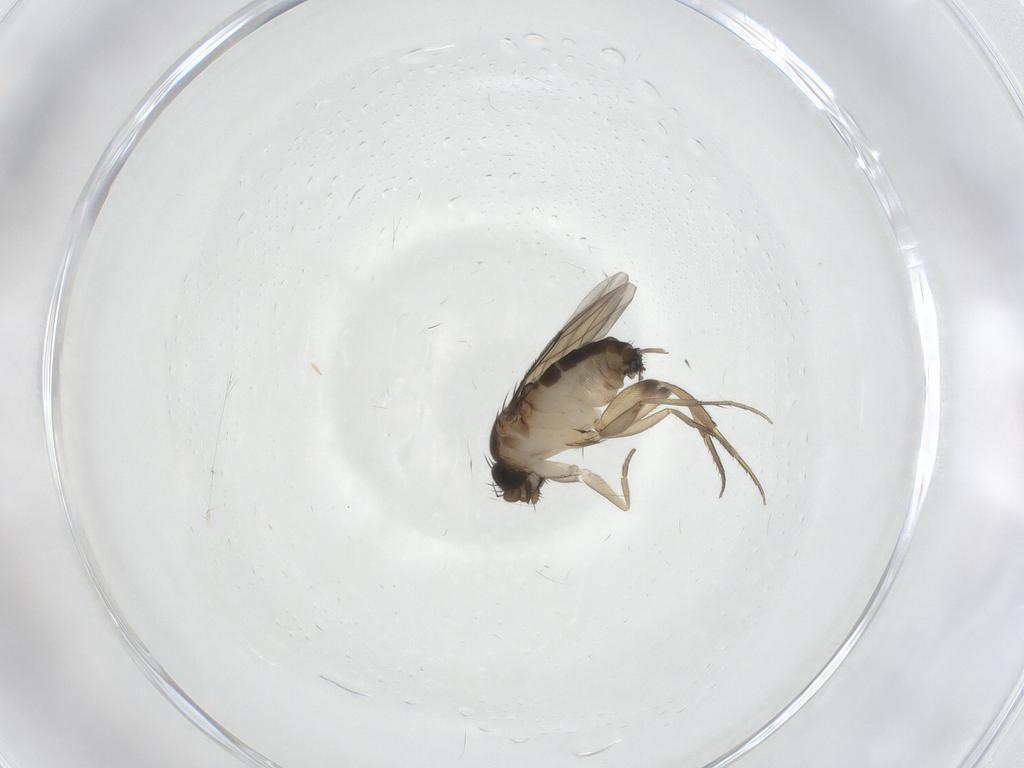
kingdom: Animalia
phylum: Arthropoda
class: Insecta
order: Diptera
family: Phoridae
